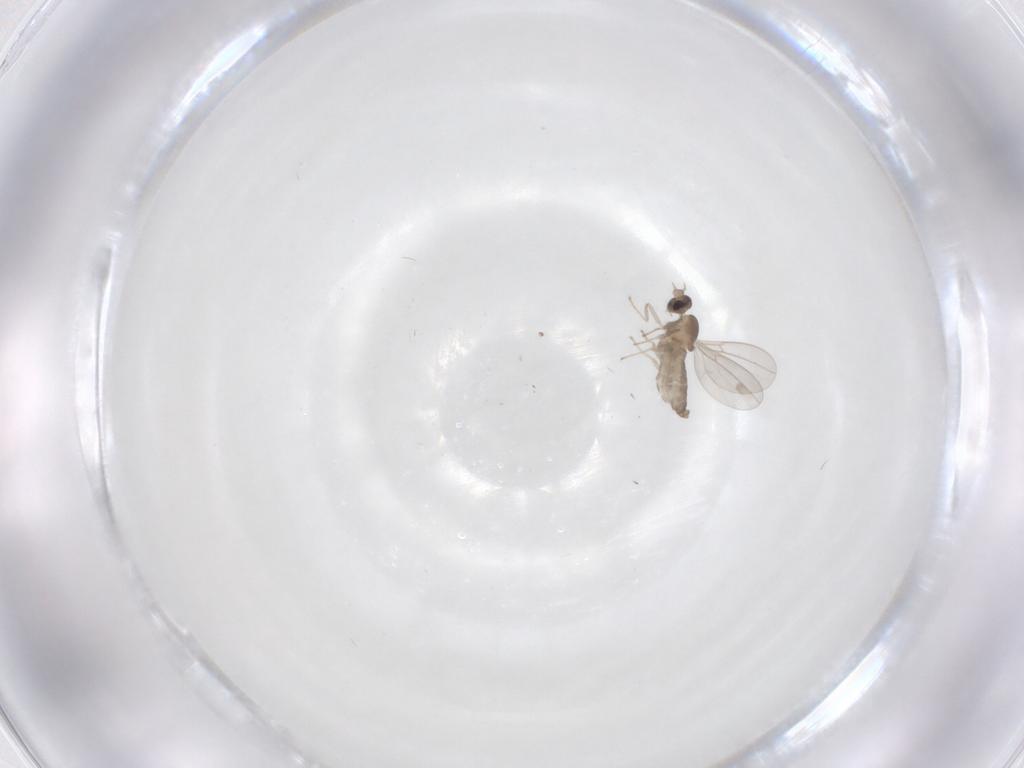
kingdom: Animalia
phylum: Arthropoda
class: Insecta
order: Diptera
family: Cecidomyiidae
